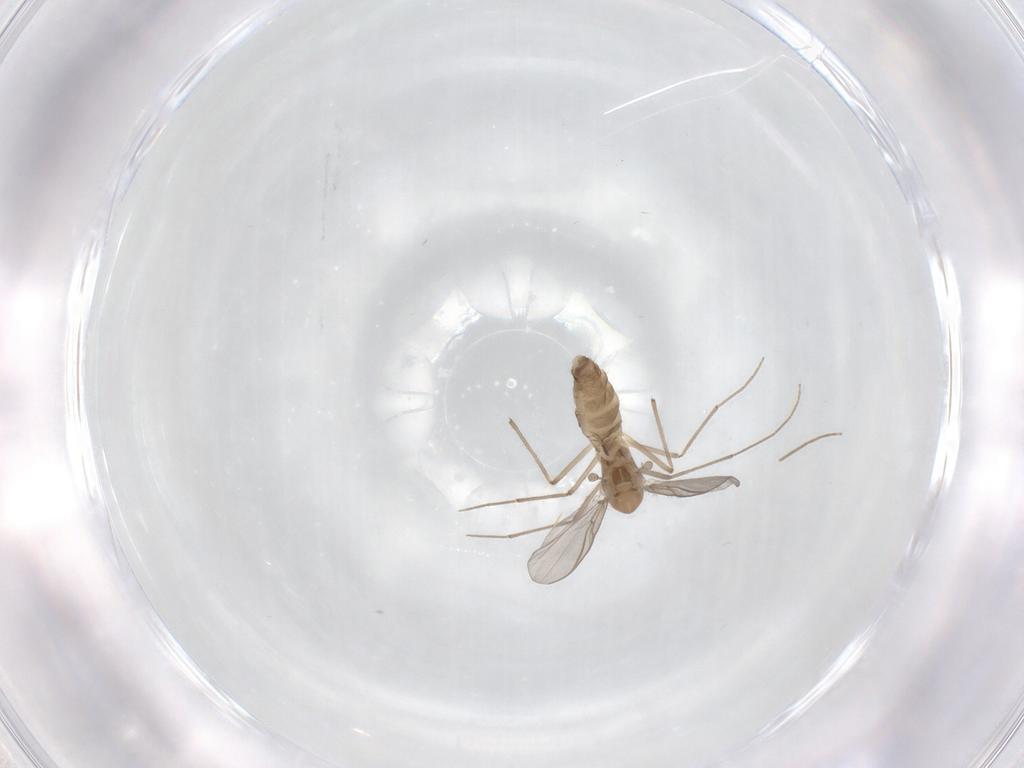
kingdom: Animalia
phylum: Arthropoda
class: Insecta
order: Diptera
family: Chironomidae
